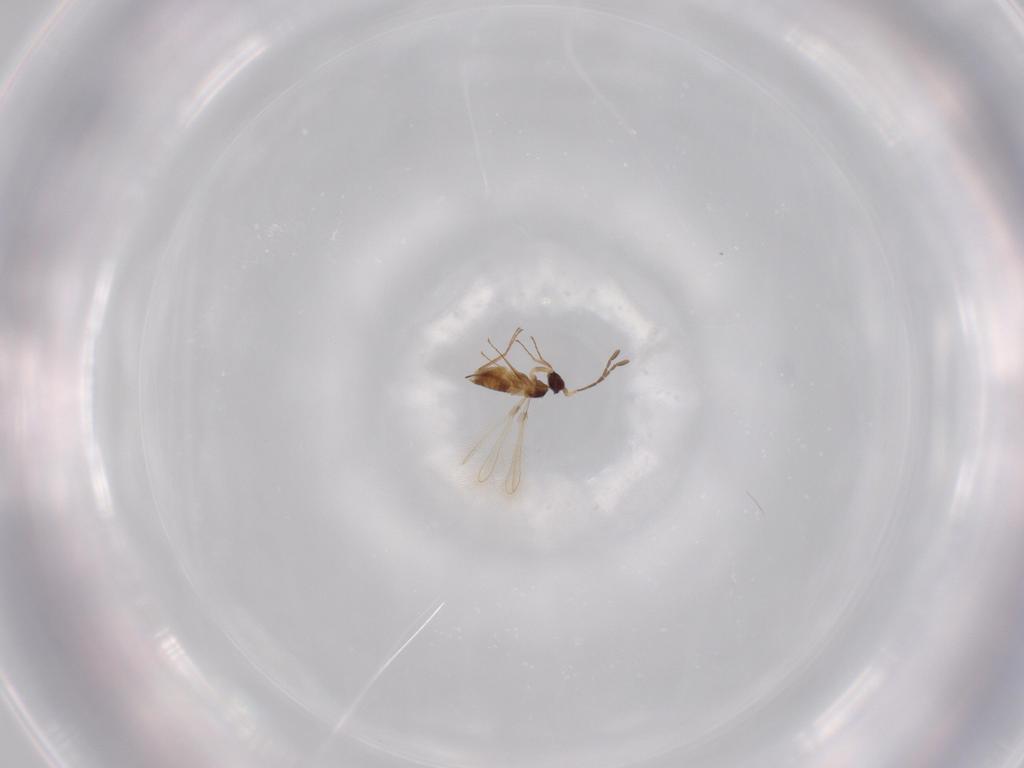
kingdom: Animalia
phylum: Arthropoda
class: Insecta
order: Hymenoptera
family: Mymaridae
